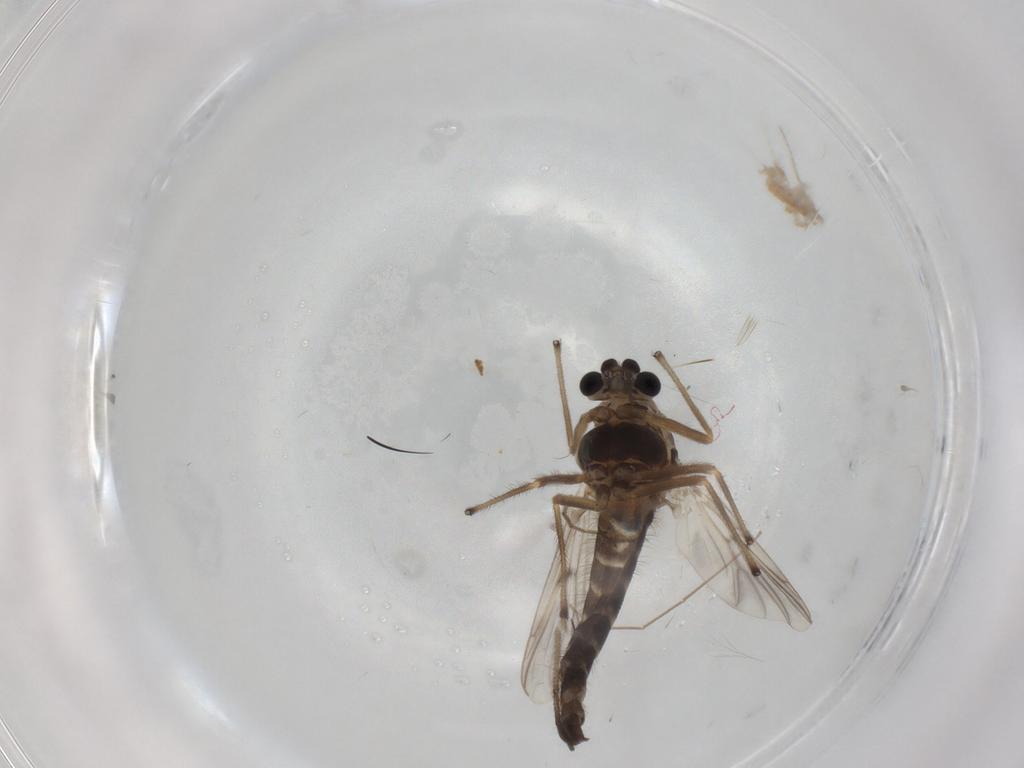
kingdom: Animalia
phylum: Arthropoda
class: Insecta
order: Diptera
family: Chironomidae
